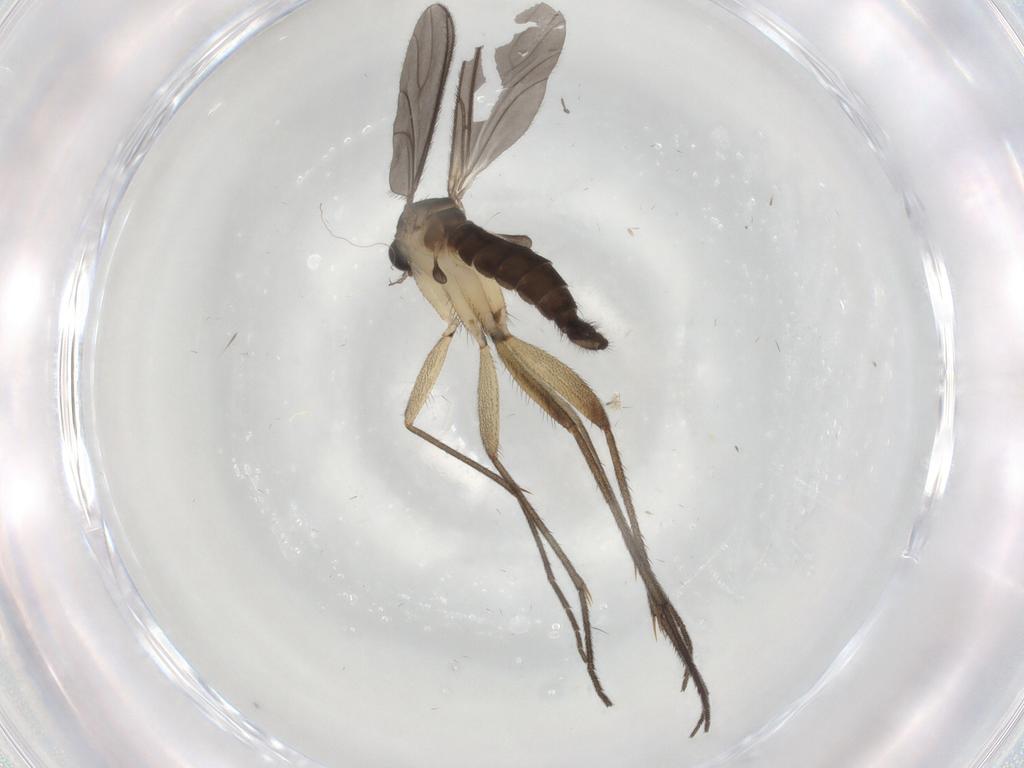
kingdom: Animalia
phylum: Arthropoda
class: Insecta
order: Diptera
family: Sciaridae
